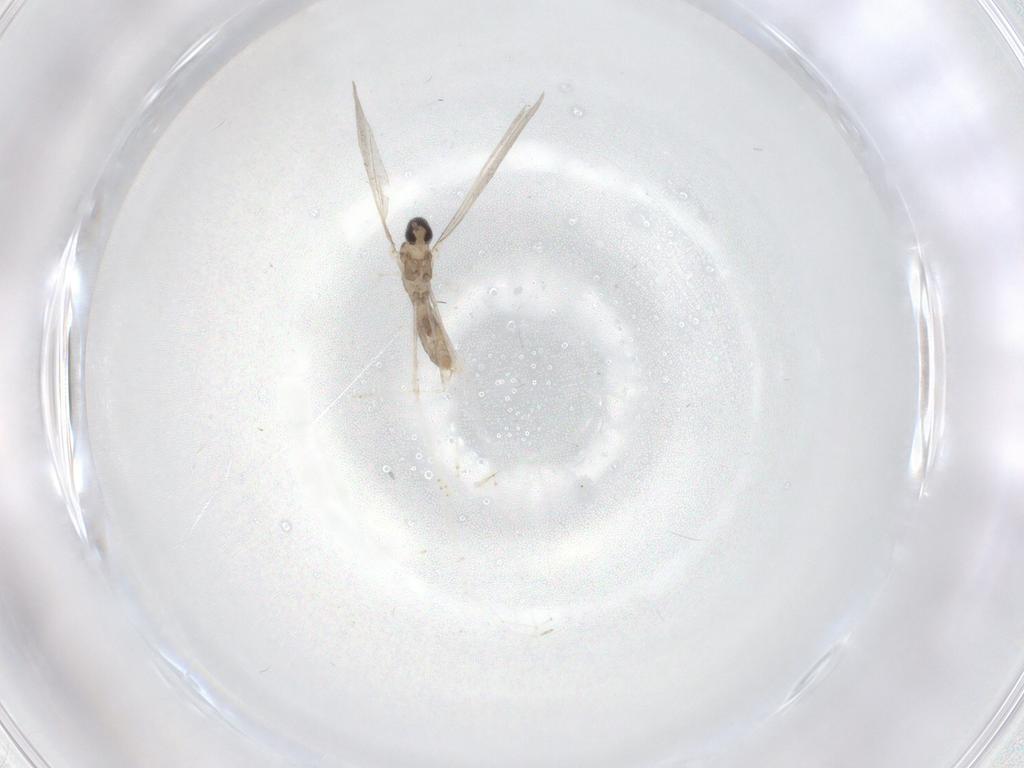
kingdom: Animalia
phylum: Arthropoda
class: Insecta
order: Diptera
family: Cecidomyiidae
